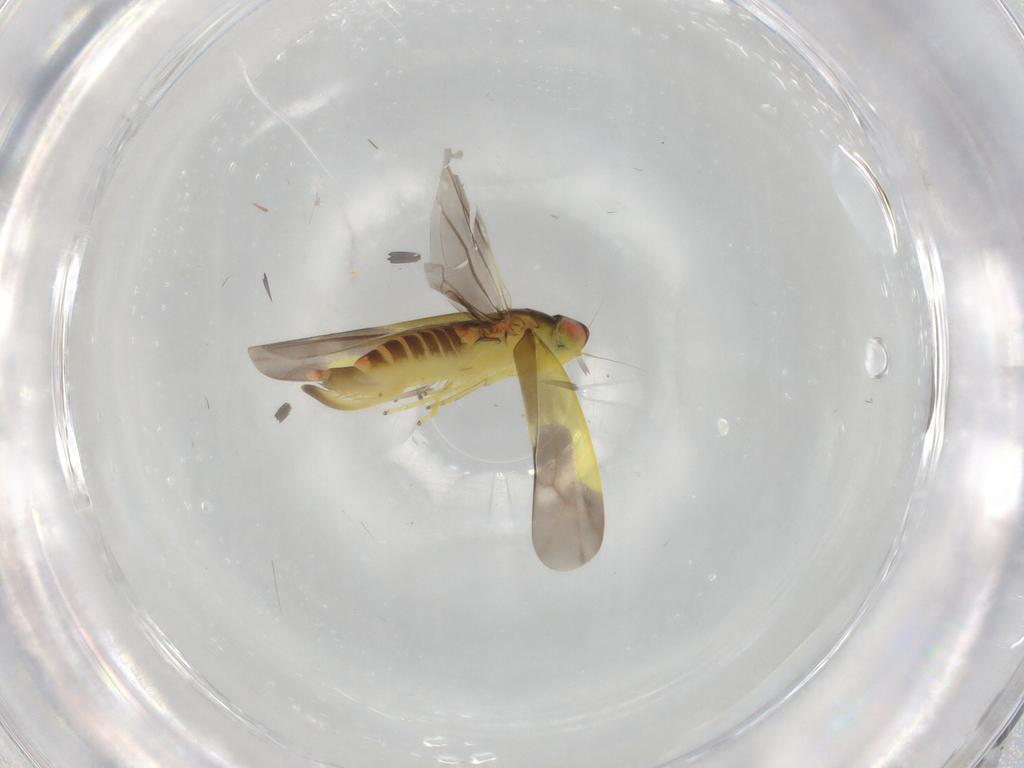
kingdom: Animalia
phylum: Arthropoda
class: Insecta
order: Hemiptera
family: Cicadellidae
